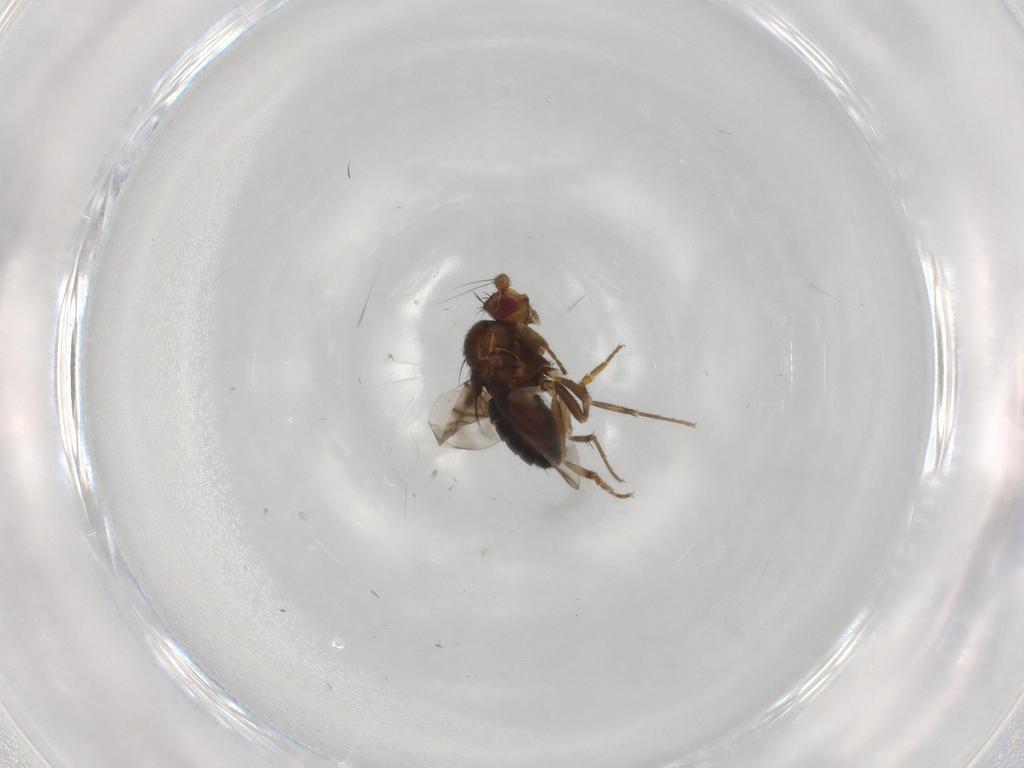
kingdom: Animalia
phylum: Arthropoda
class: Insecta
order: Diptera
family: Sphaeroceridae
